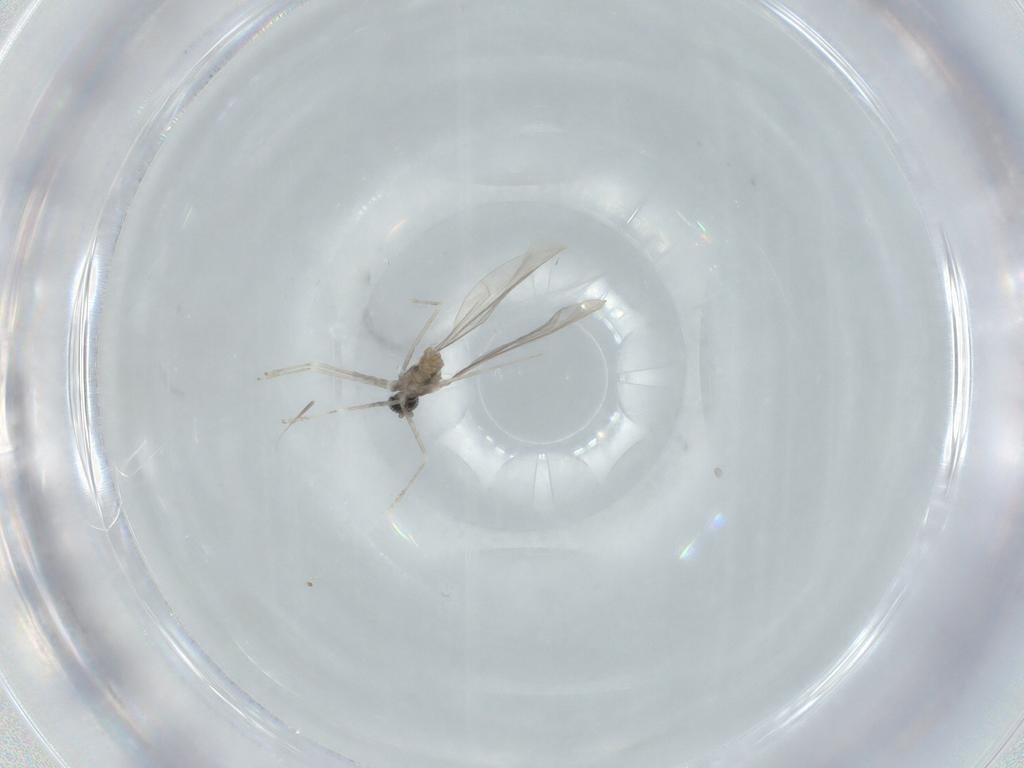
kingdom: Animalia
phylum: Arthropoda
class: Insecta
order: Diptera
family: Cecidomyiidae
